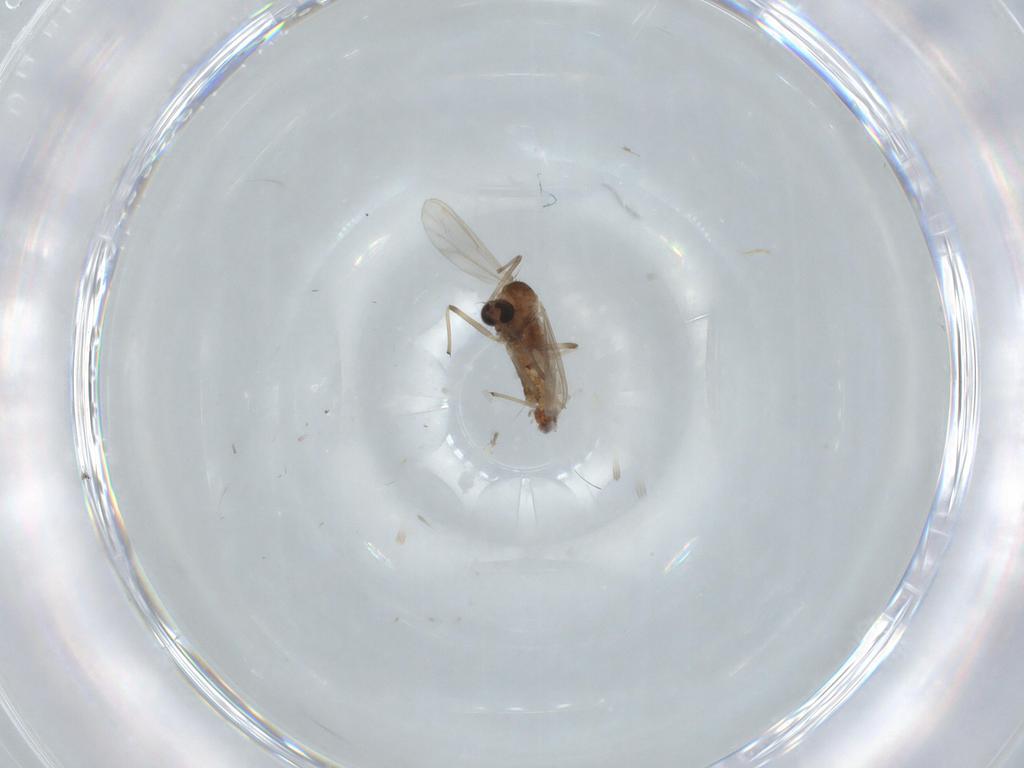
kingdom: Animalia
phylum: Arthropoda
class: Insecta
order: Diptera
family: Chironomidae
